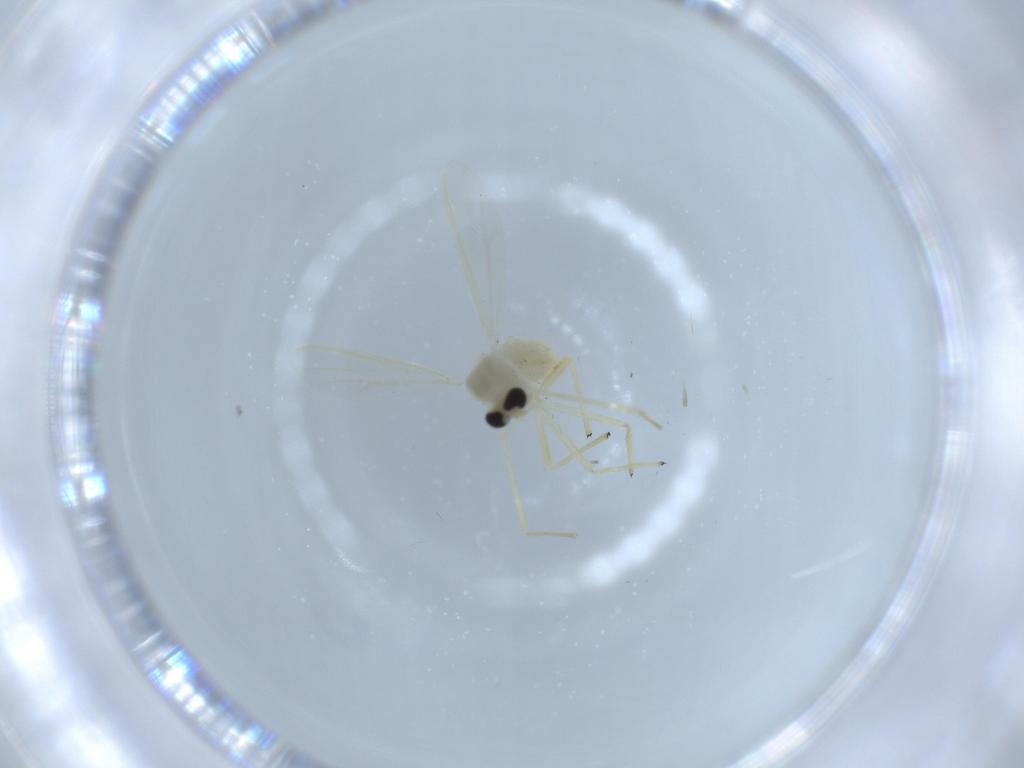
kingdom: Animalia
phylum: Arthropoda
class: Insecta
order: Diptera
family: Chironomidae
